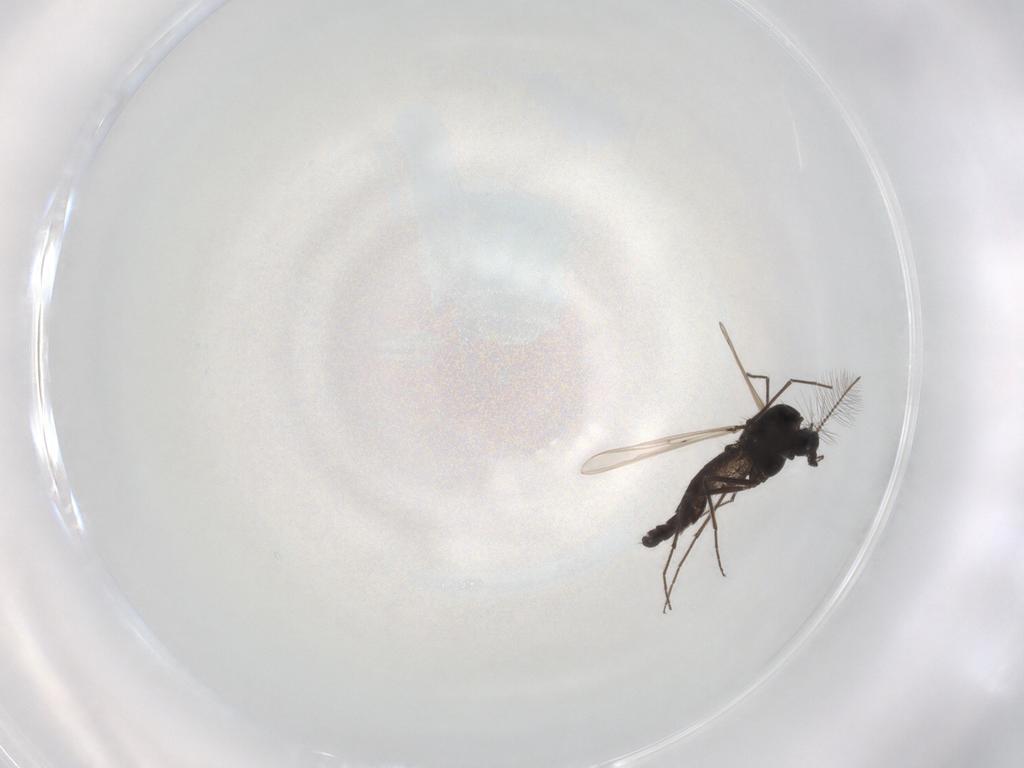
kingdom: Animalia
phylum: Arthropoda
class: Insecta
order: Diptera
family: Chironomidae
